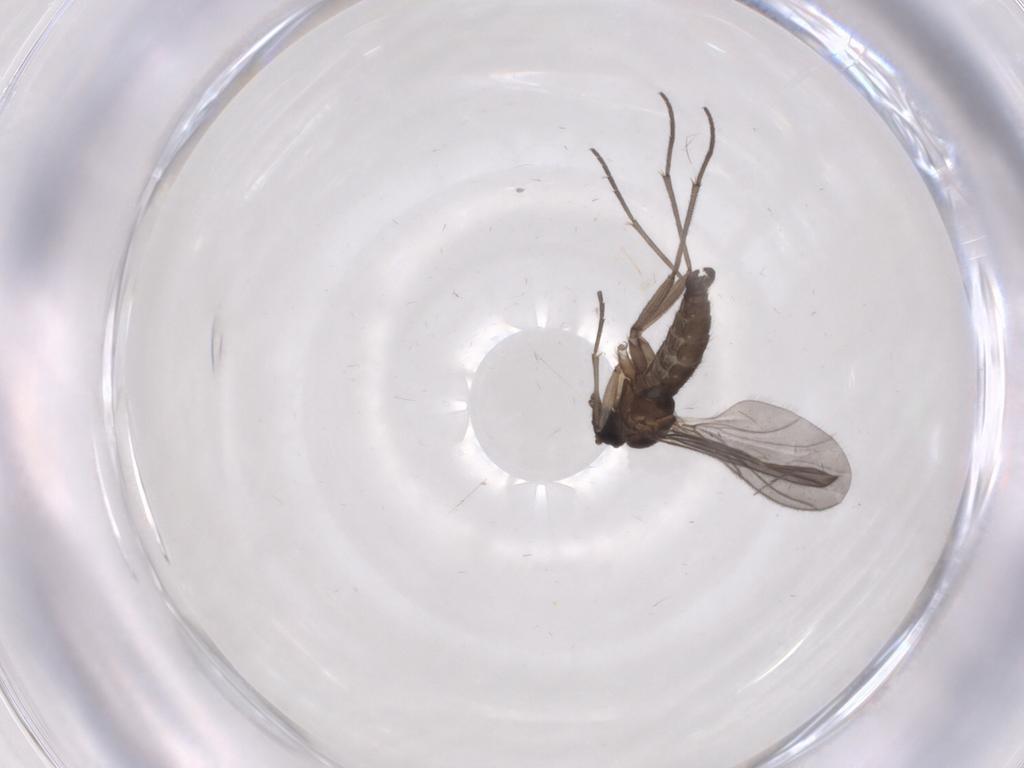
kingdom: Animalia
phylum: Arthropoda
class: Insecta
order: Diptera
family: Sciaridae
